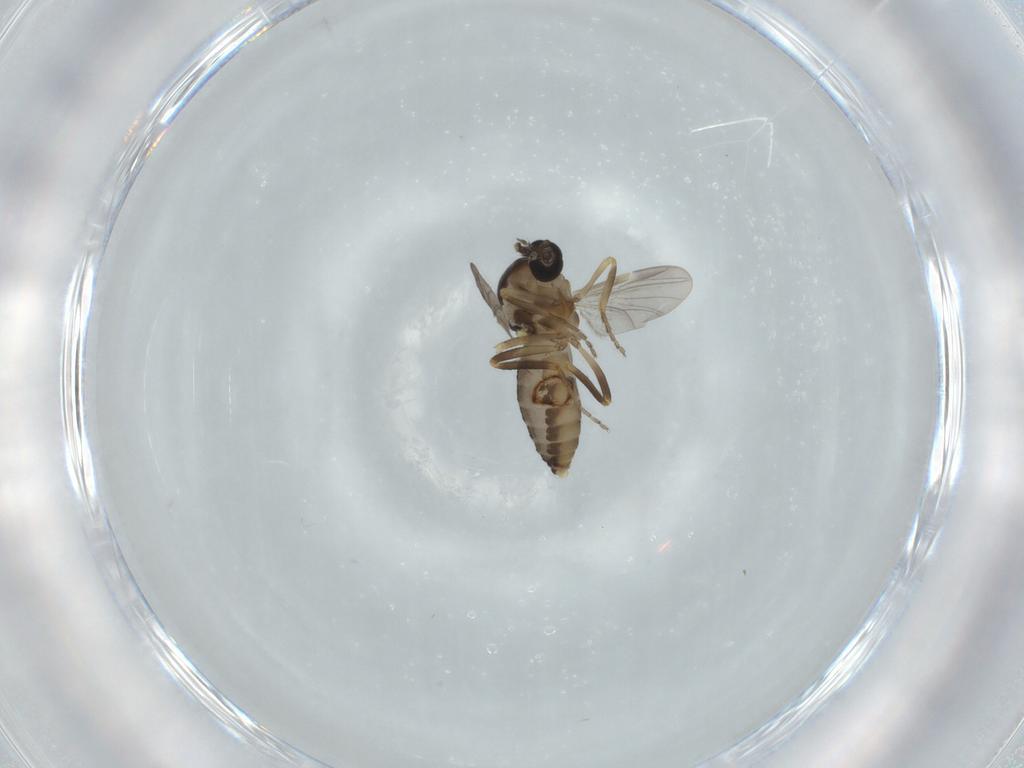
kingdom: Animalia
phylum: Arthropoda
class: Insecta
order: Diptera
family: Ceratopogonidae
